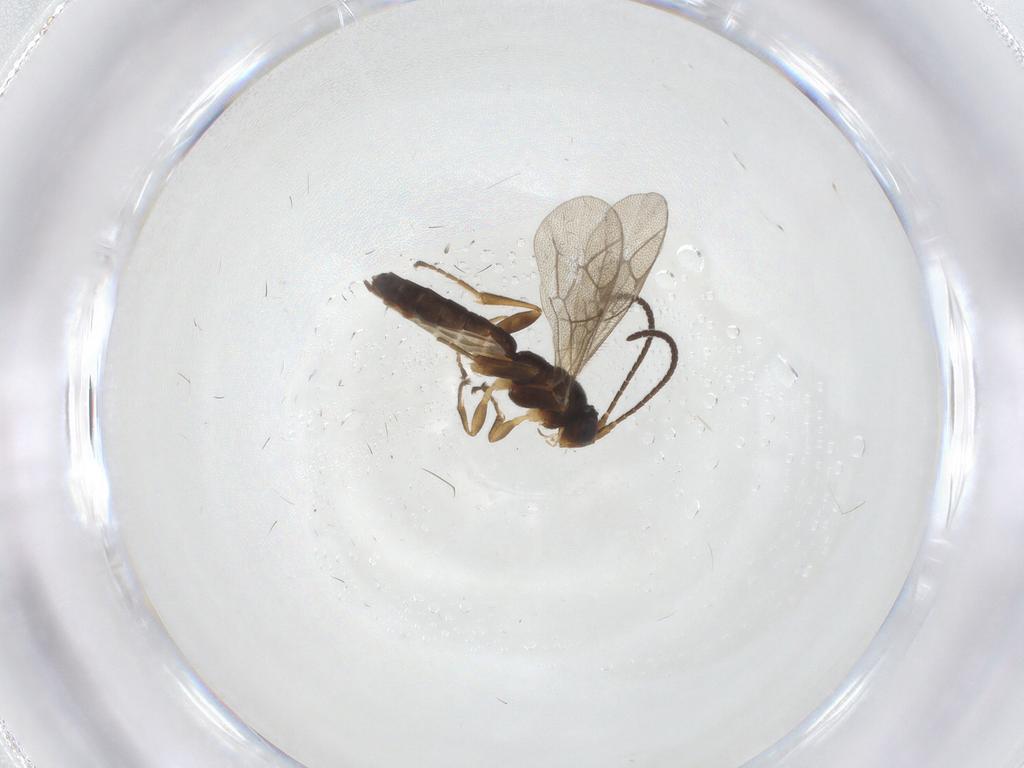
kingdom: Animalia
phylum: Arthropoda
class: Insecta
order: Hymenoptera
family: Ichneumonidae
